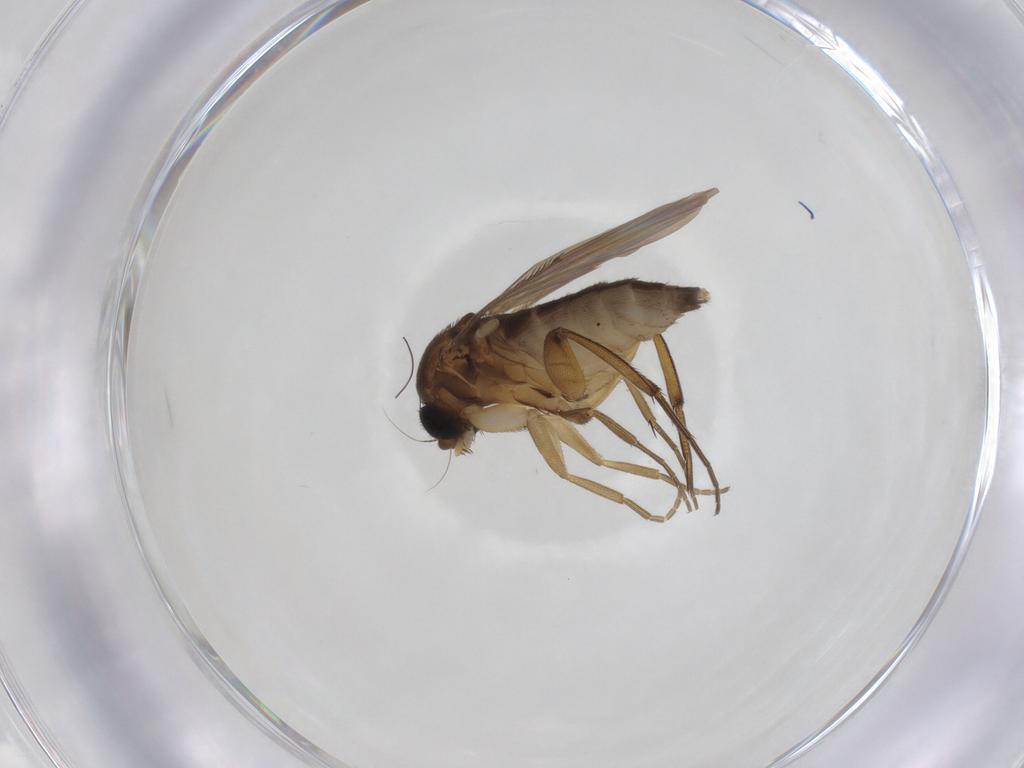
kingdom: Animalia
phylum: Arthropoda
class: Insecta
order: Diptera
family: Phoridae
